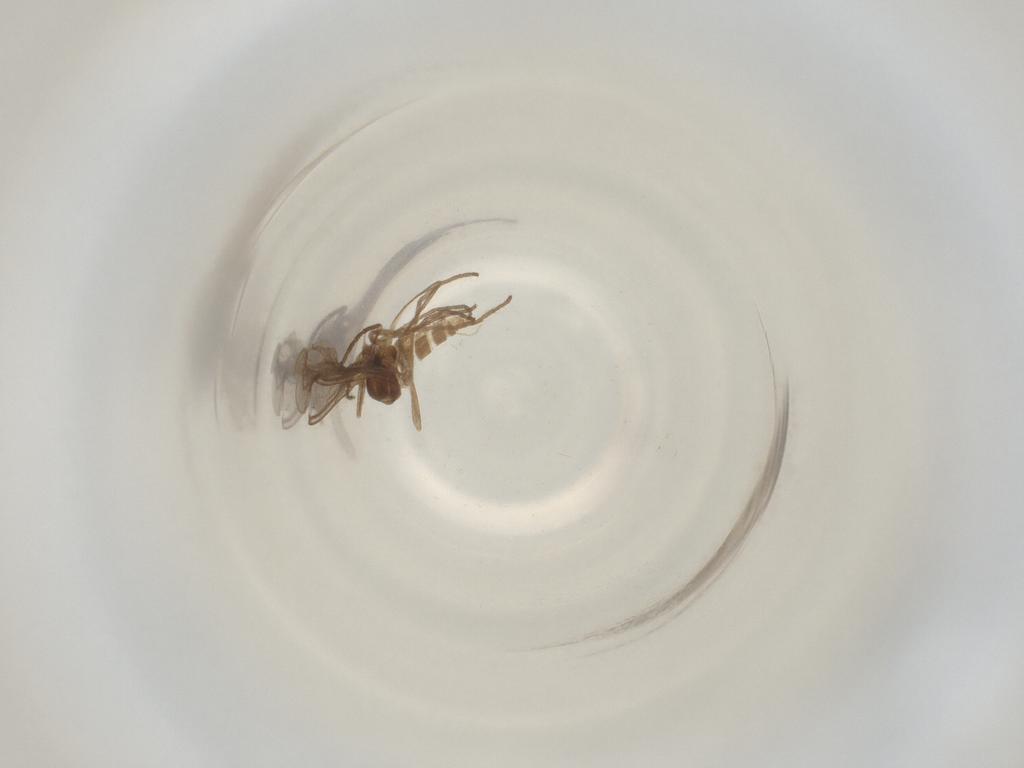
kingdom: Animalia
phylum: Arthropoda
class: Insecta
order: Diptera
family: Cecidomyiidae
